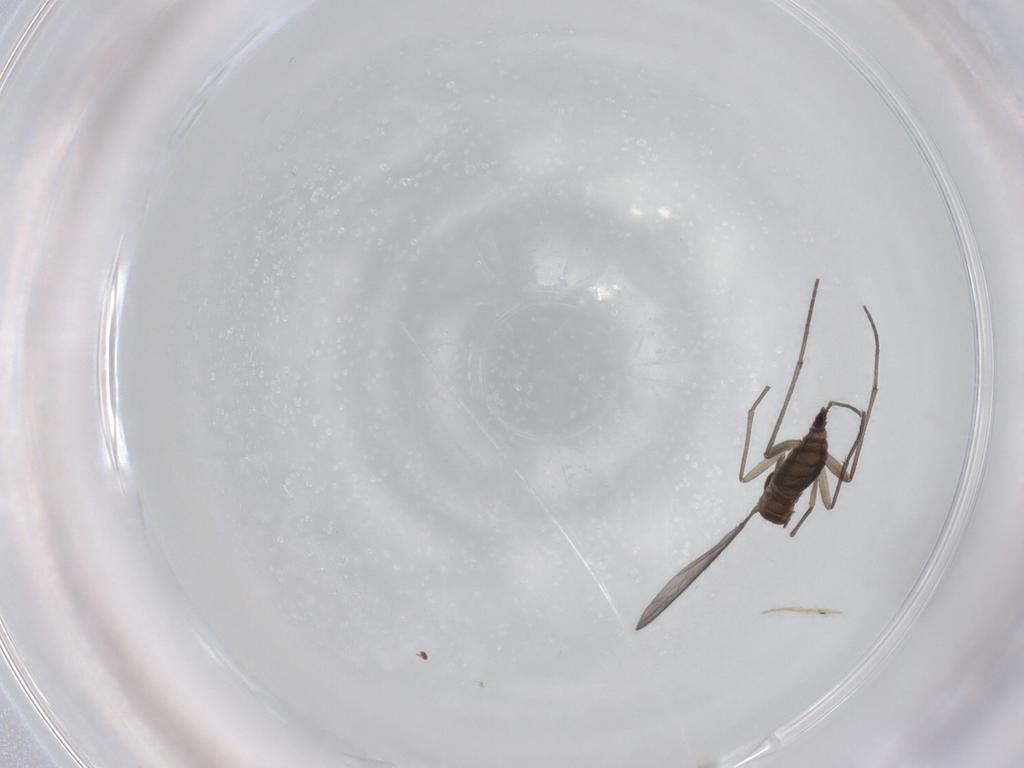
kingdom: Animalia
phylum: Arthropoda
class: Insecta
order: Diptera
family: Sciaridae
